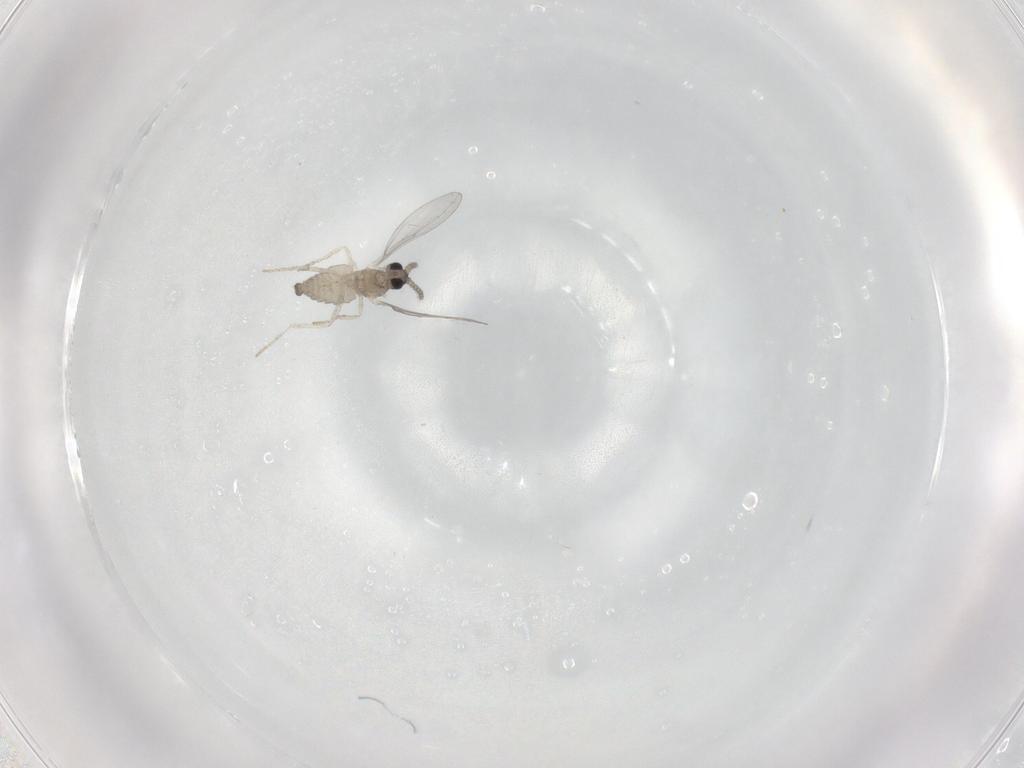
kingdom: Animalia
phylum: Arthropoda
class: Insecta
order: Diptera
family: Cecidomyiidae
